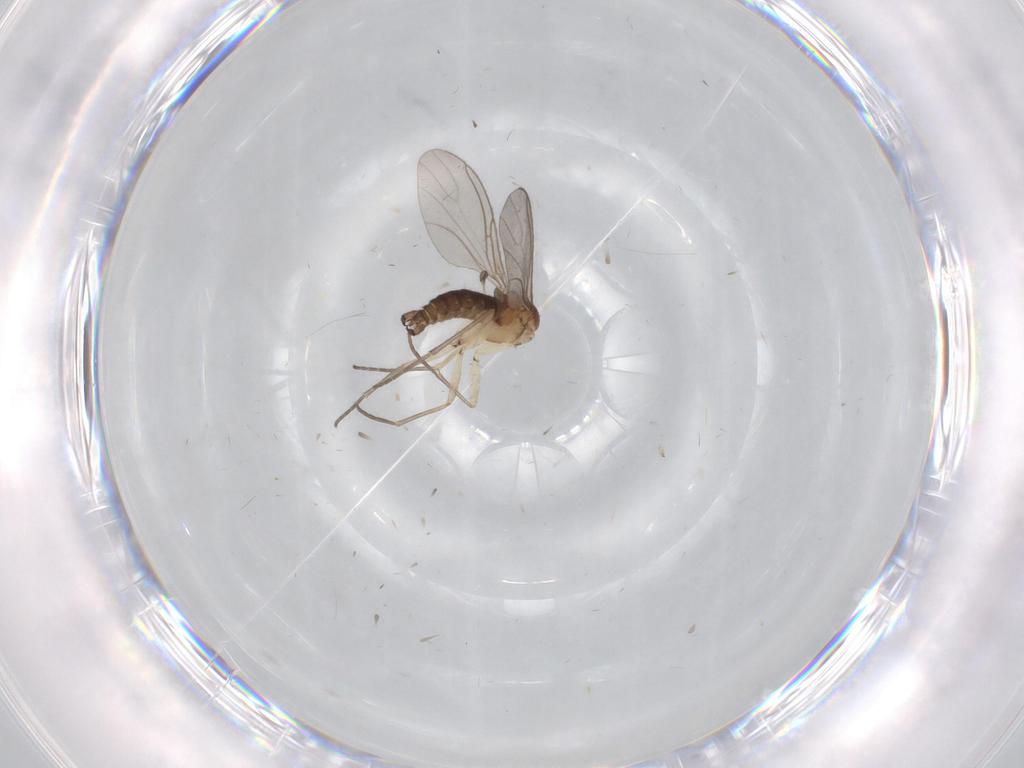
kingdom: Animalia
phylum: Arthropoda
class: Insecta
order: Diptera
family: Sciaridae
